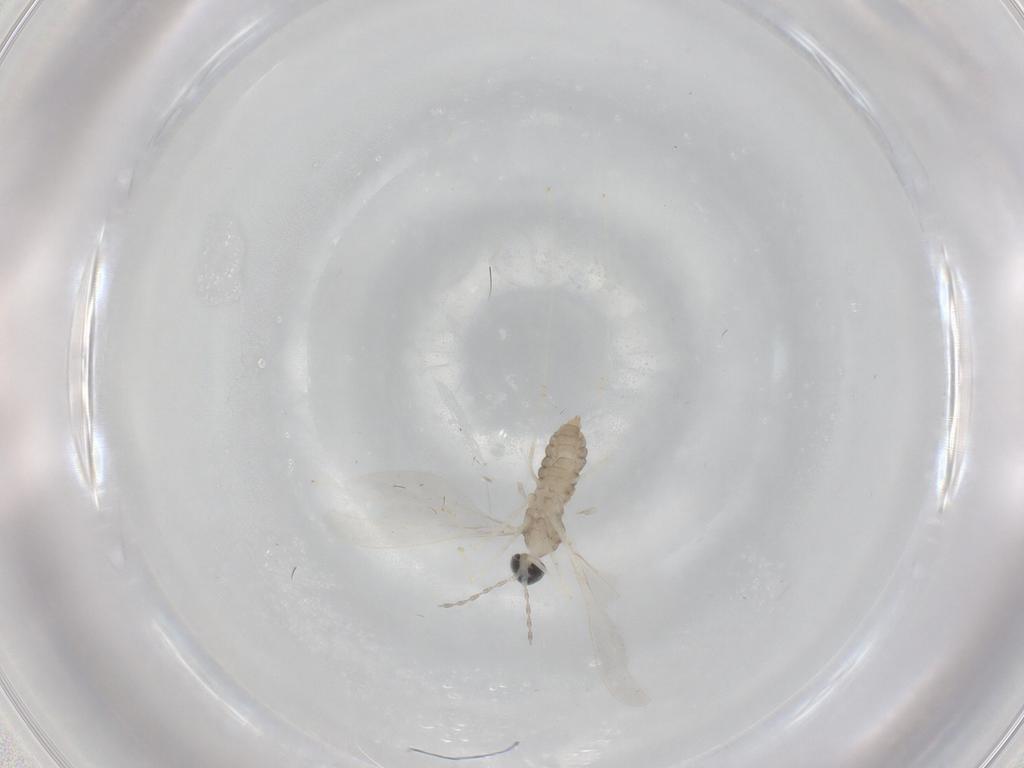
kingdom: Animalia
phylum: Arthropoda
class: Insecta
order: Diptera
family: Cecidomyiidae
